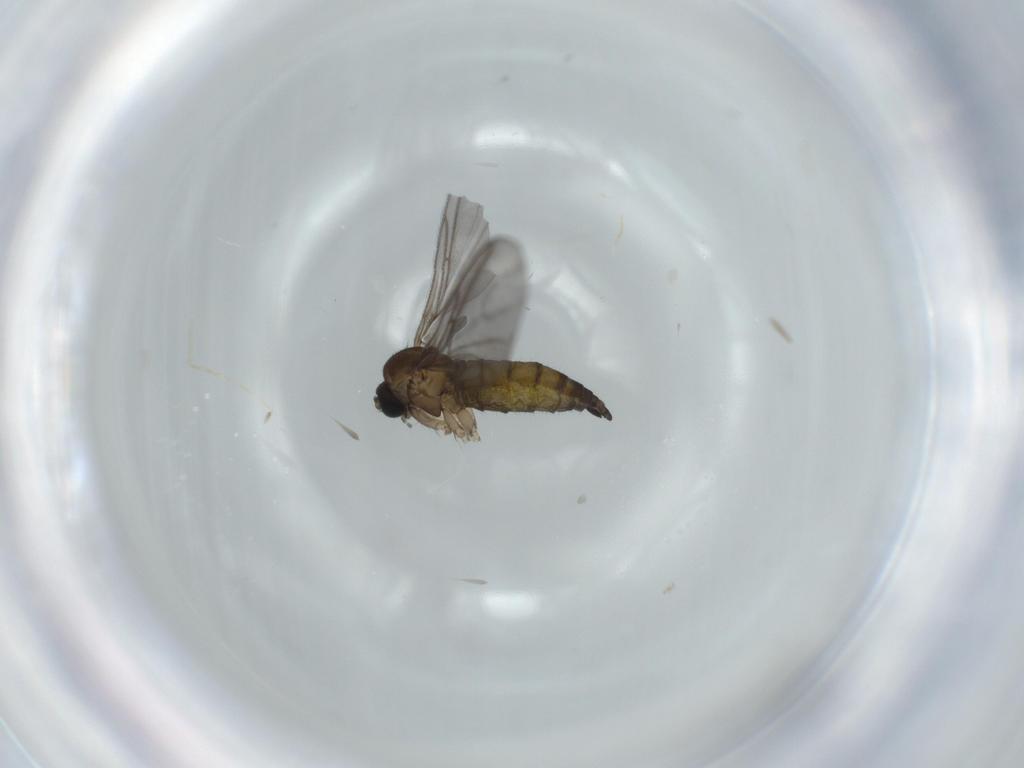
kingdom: Animalia
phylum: Arthropoda
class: Insecta
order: Diptera
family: Sciaridae
